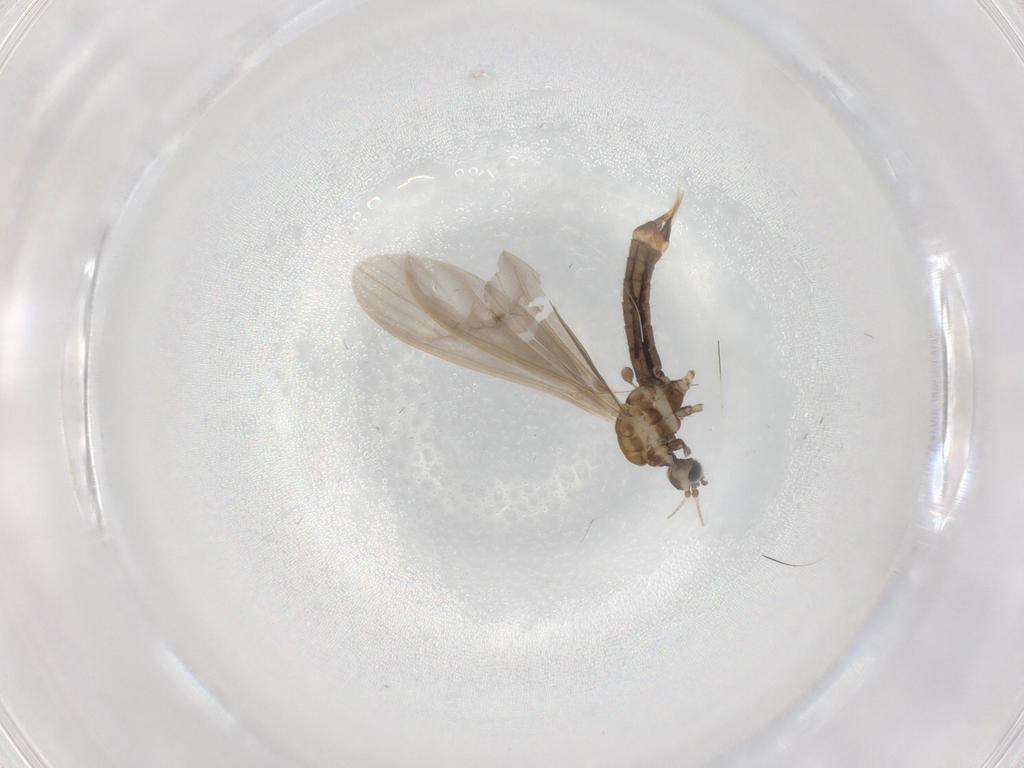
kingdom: Animalia
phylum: Arthropoda
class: Insecta
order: Diptera
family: Limoniidae
